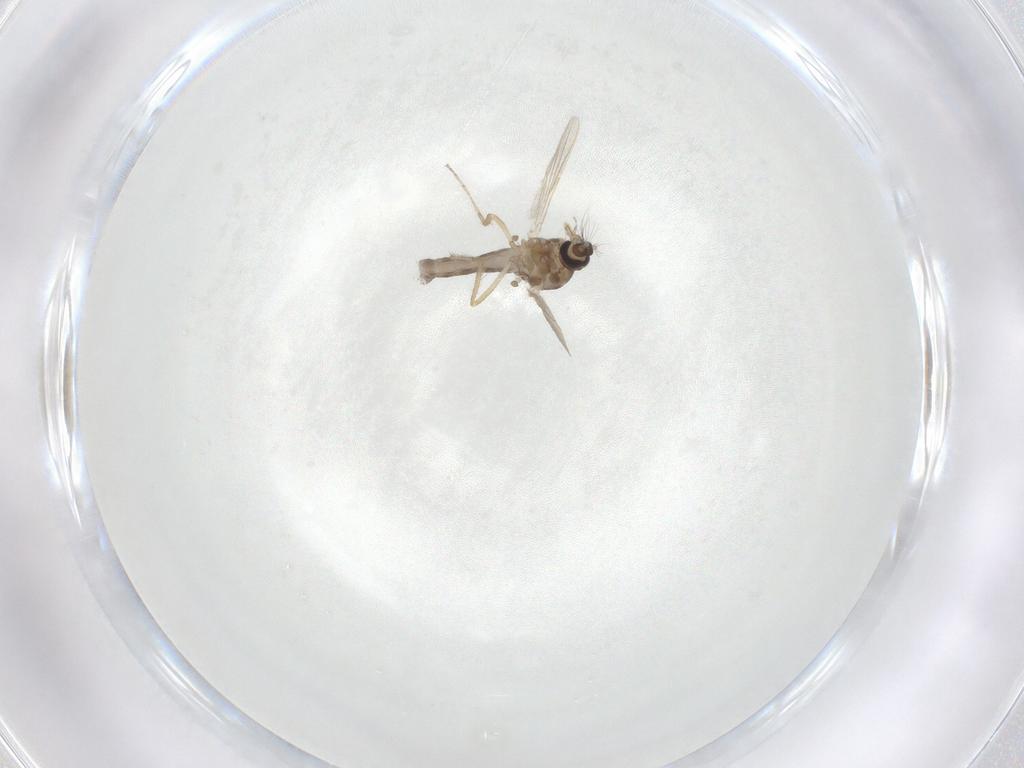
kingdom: Animalia
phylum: Arthropoda
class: Insecta
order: Diptera
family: Ceratopogonidae
